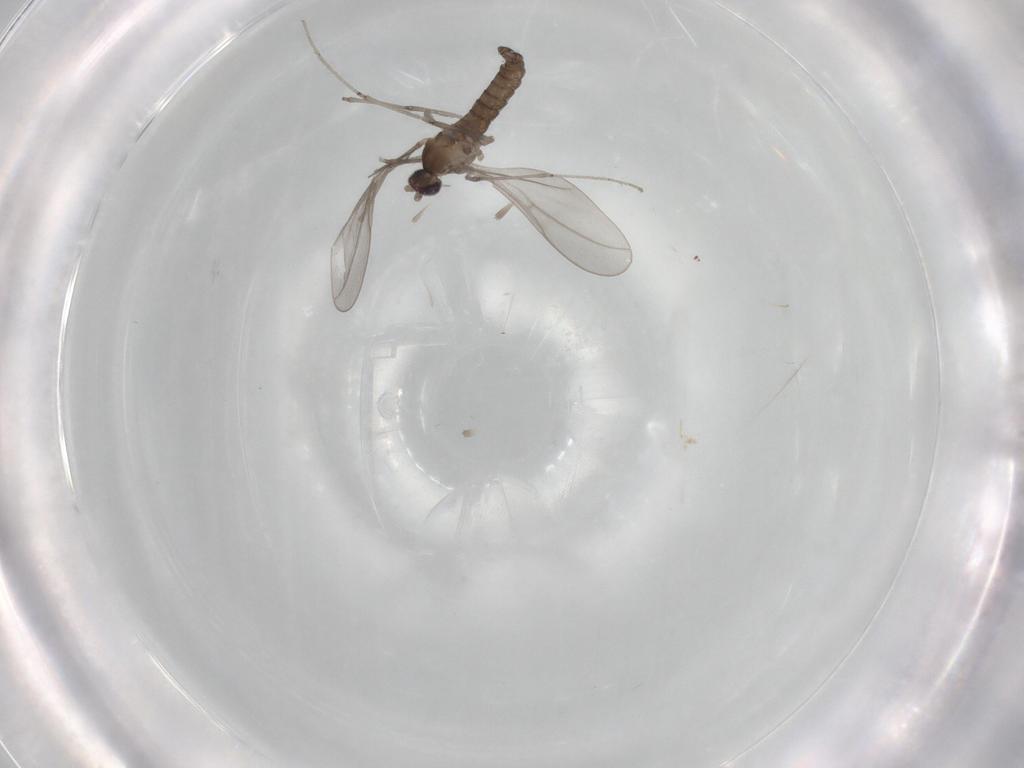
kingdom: Animalia
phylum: Arthropoda
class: Insecta
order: Diptera
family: Cecidomyiidae
